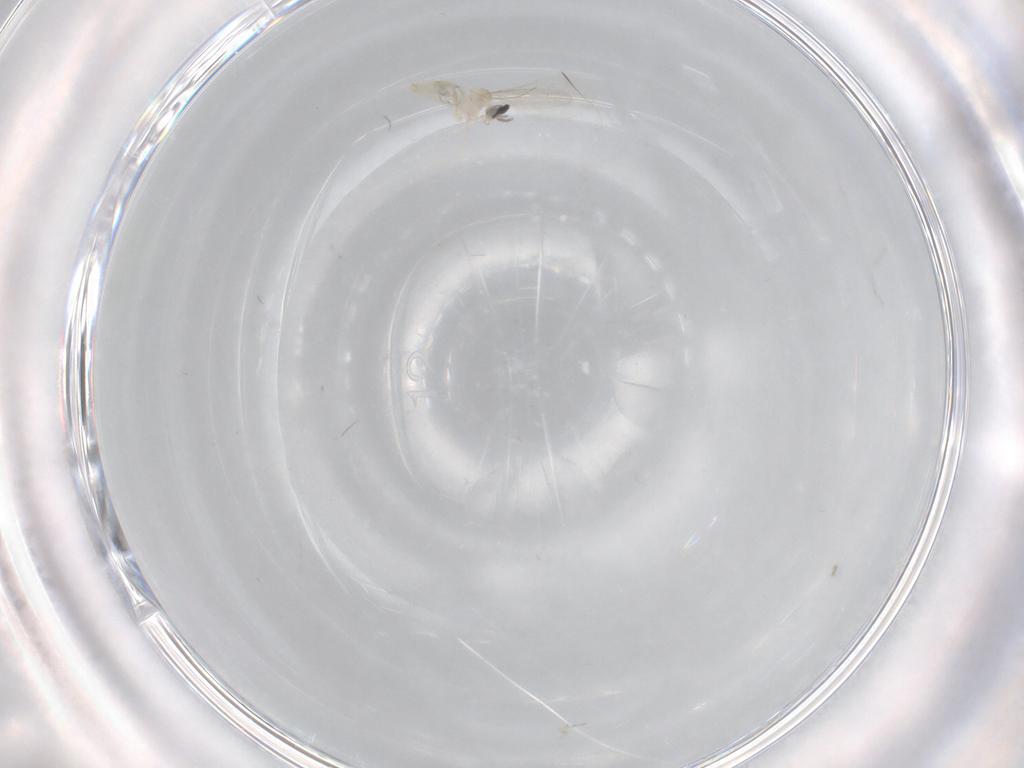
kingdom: Animalia
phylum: Arthropoda
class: Insecta
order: Diptera
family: Cecidomyiidae
